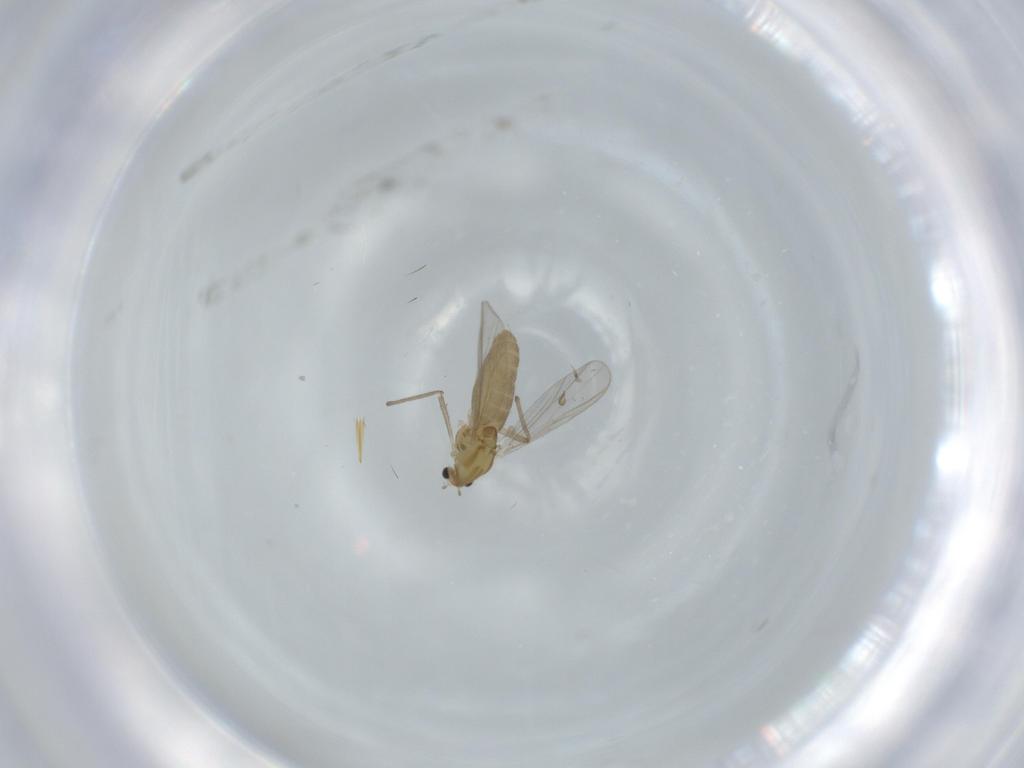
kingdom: Animalia
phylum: Arthropoda
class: Insecta
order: Diptera
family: Chironomidae
